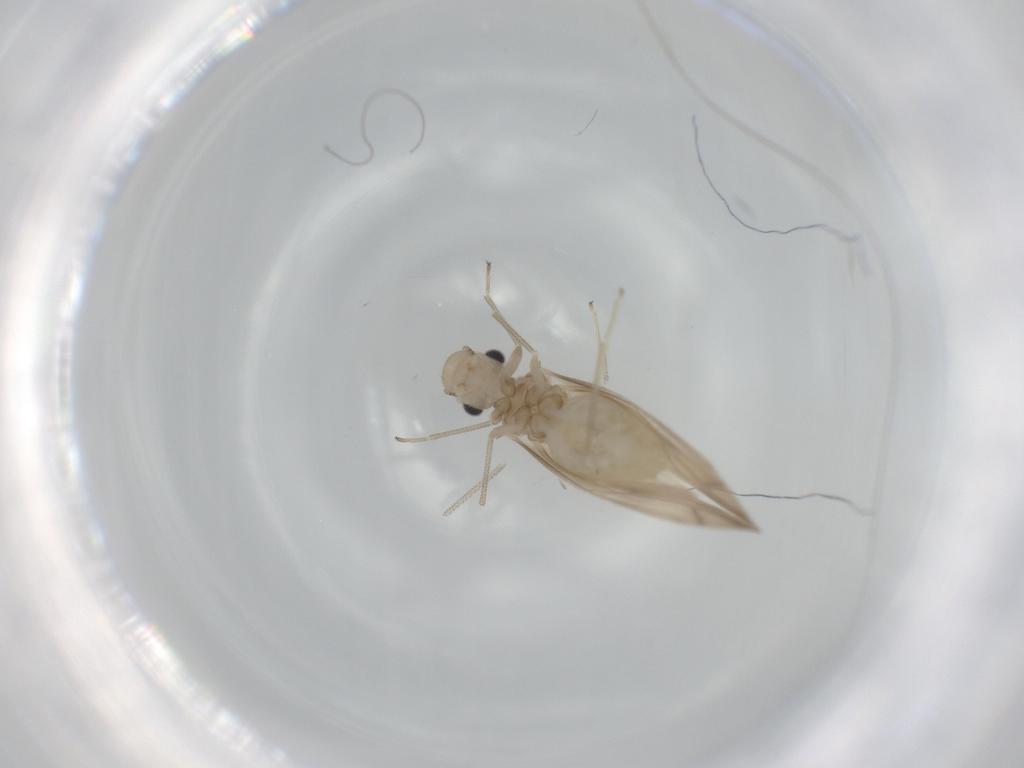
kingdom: Animalia
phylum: Arthropoda
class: Insecta
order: Psocodea
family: Caeciliusidae
